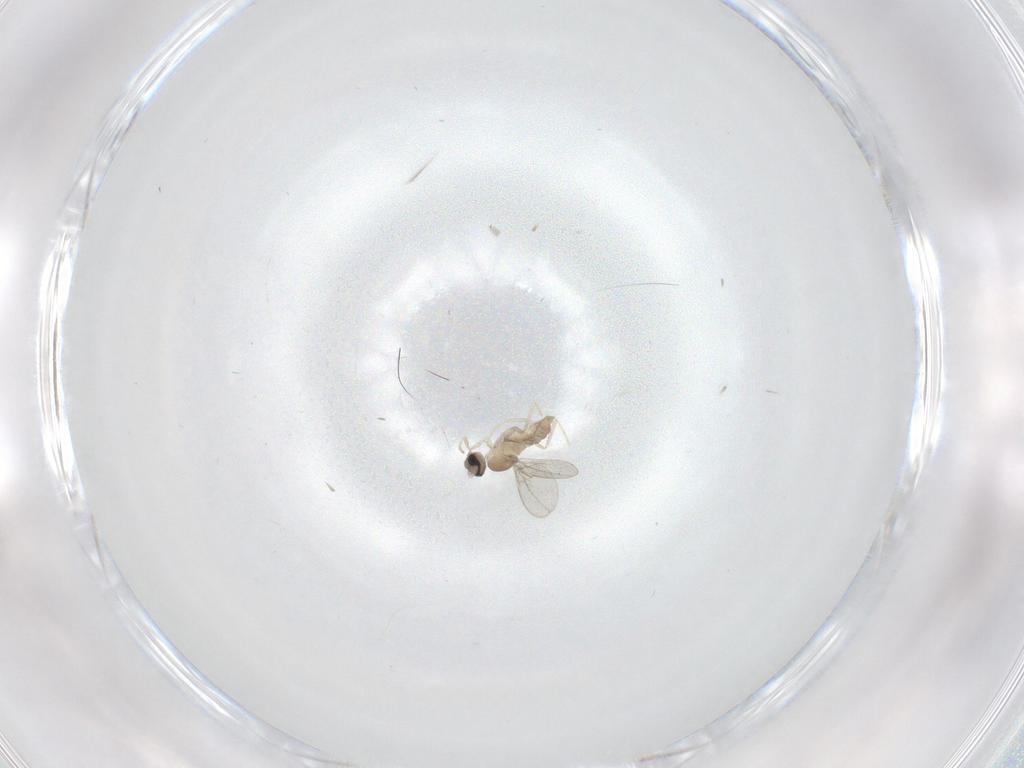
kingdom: Animalia
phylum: Arthropoda
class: Insecta
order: Diptera
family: Cecidomyiidae
